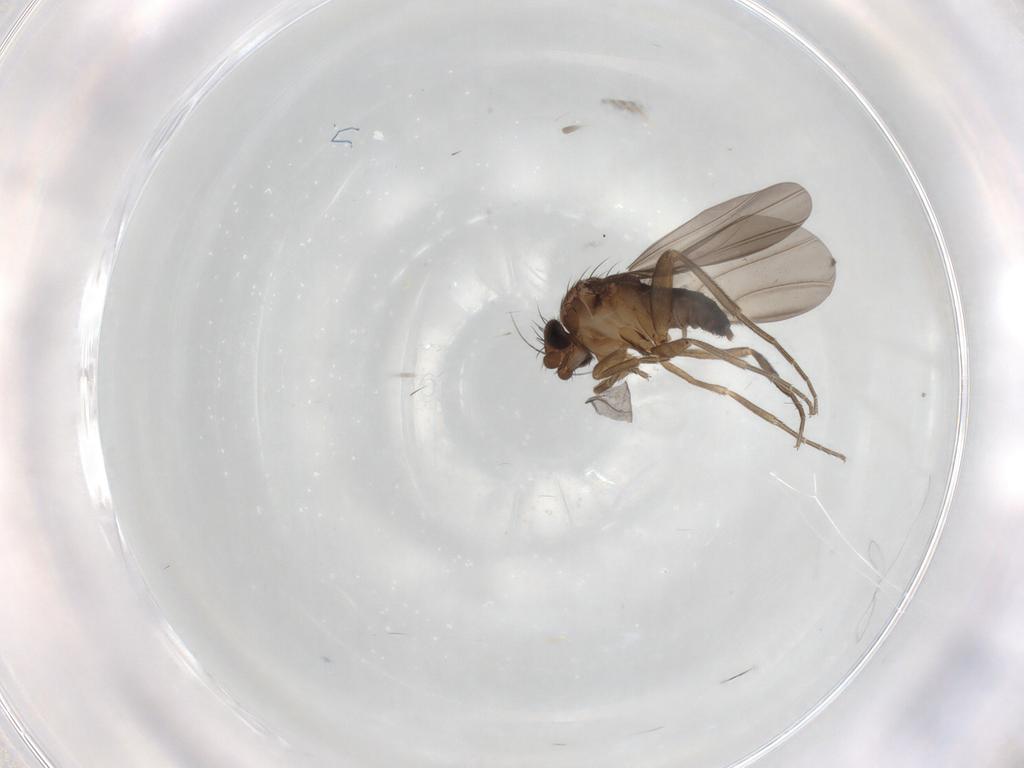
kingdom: Animalia
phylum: Arthropoda
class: Insecta
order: Diptera
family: Phoridae
